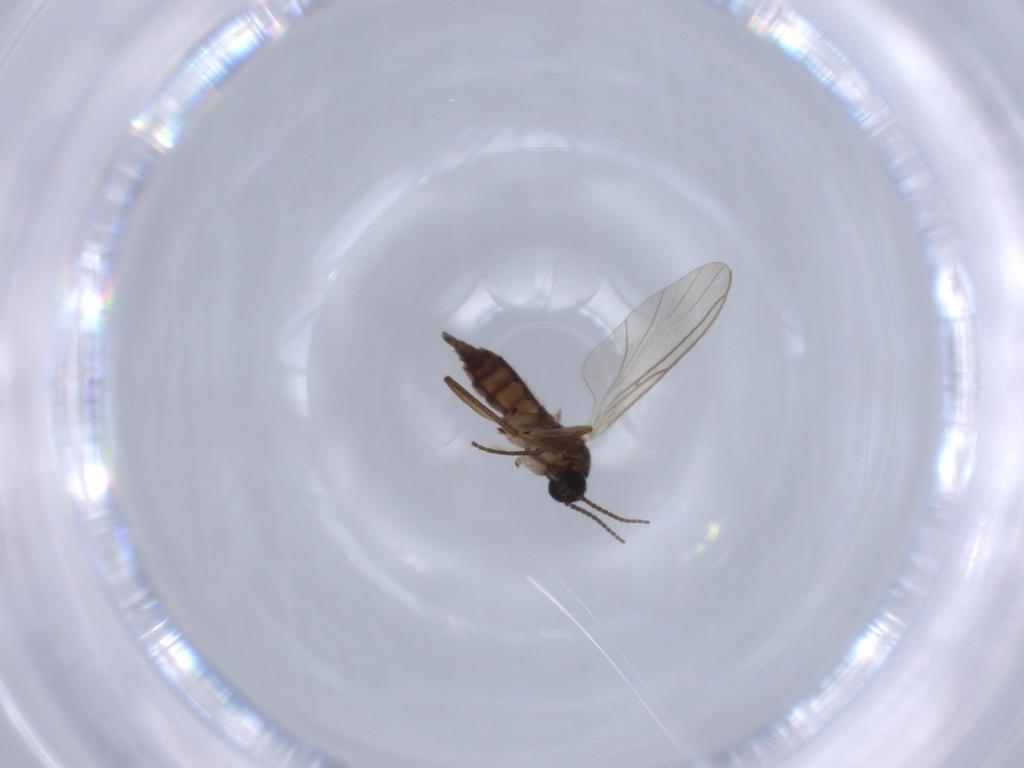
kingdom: Animalia
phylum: Arthropoda
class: Insecta
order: Diptera
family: Sciaridae
